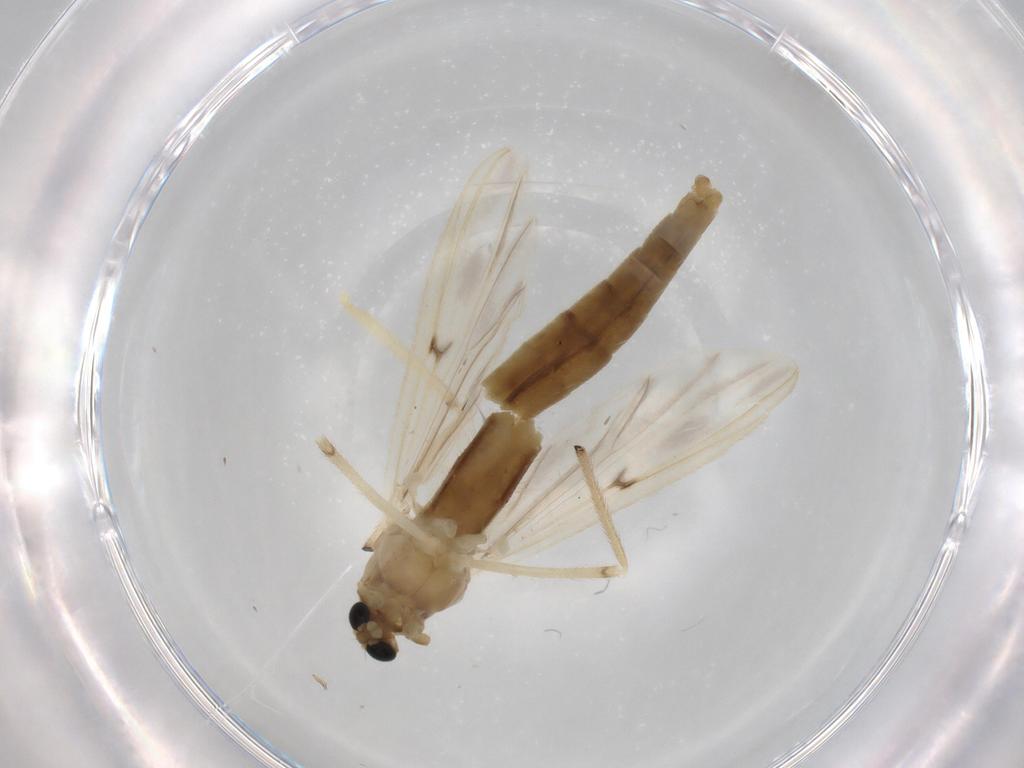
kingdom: Animalia
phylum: Arthropoda
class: Insecta
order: Diptera
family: Chironomidae
